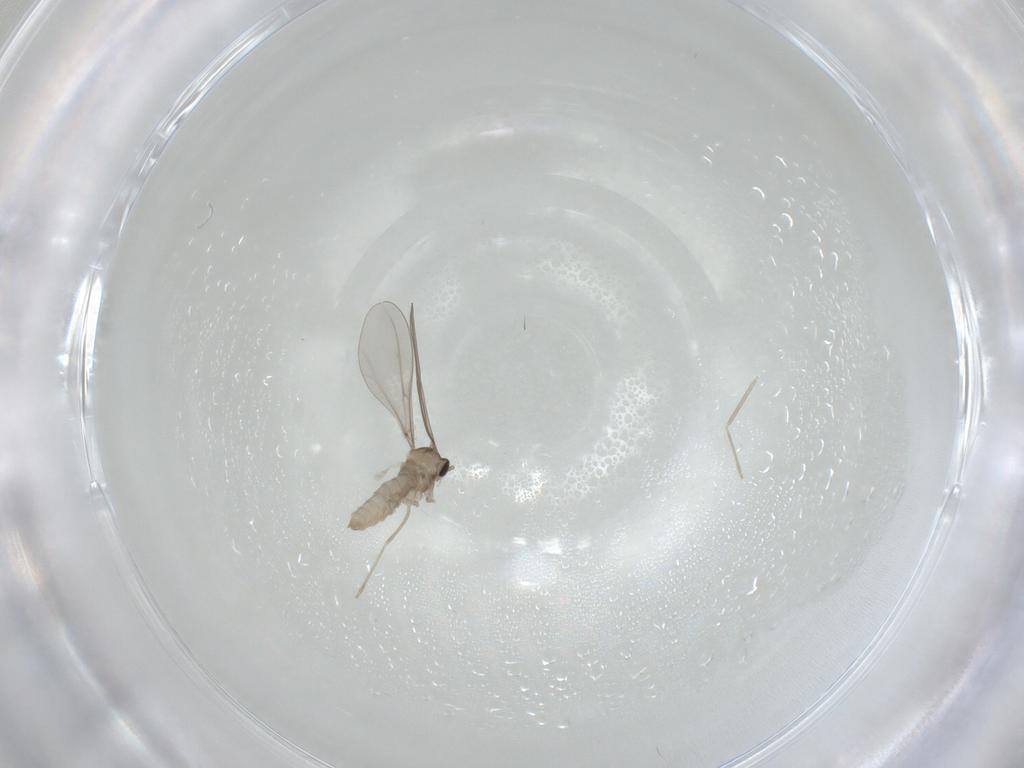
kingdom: Animalia
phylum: Arthropoda
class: Insecta
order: Diptera
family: Cecidomyiidae
